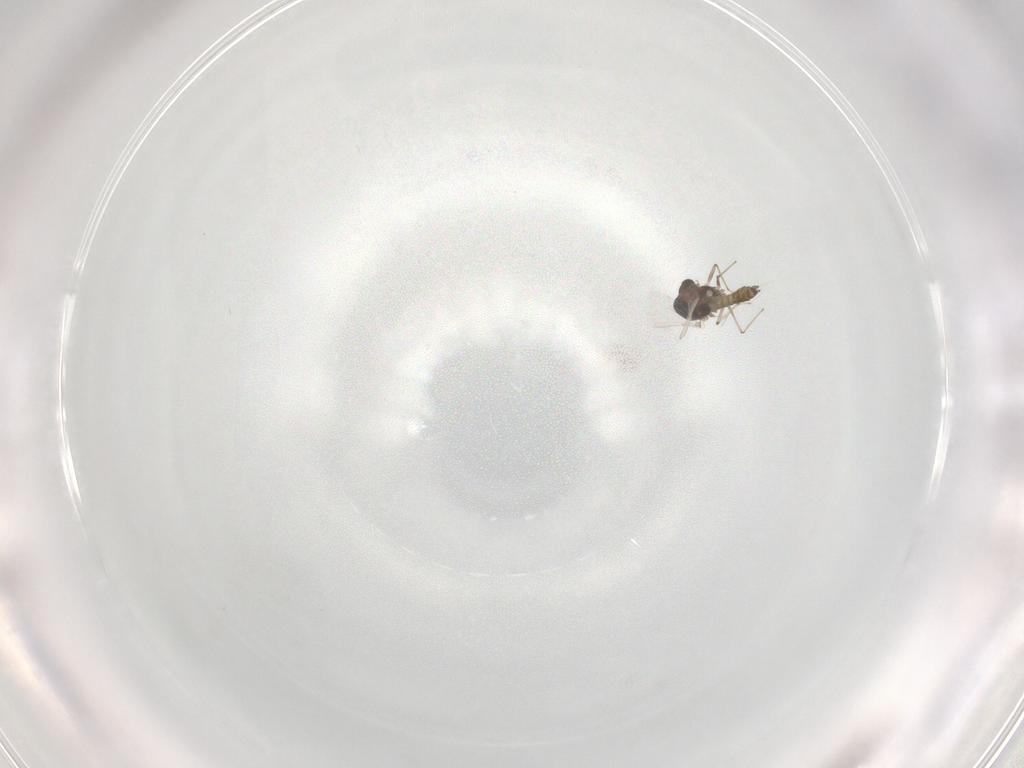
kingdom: Animalia
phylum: Arthropoda
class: Insecta
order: Diptera
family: Chironomidae
